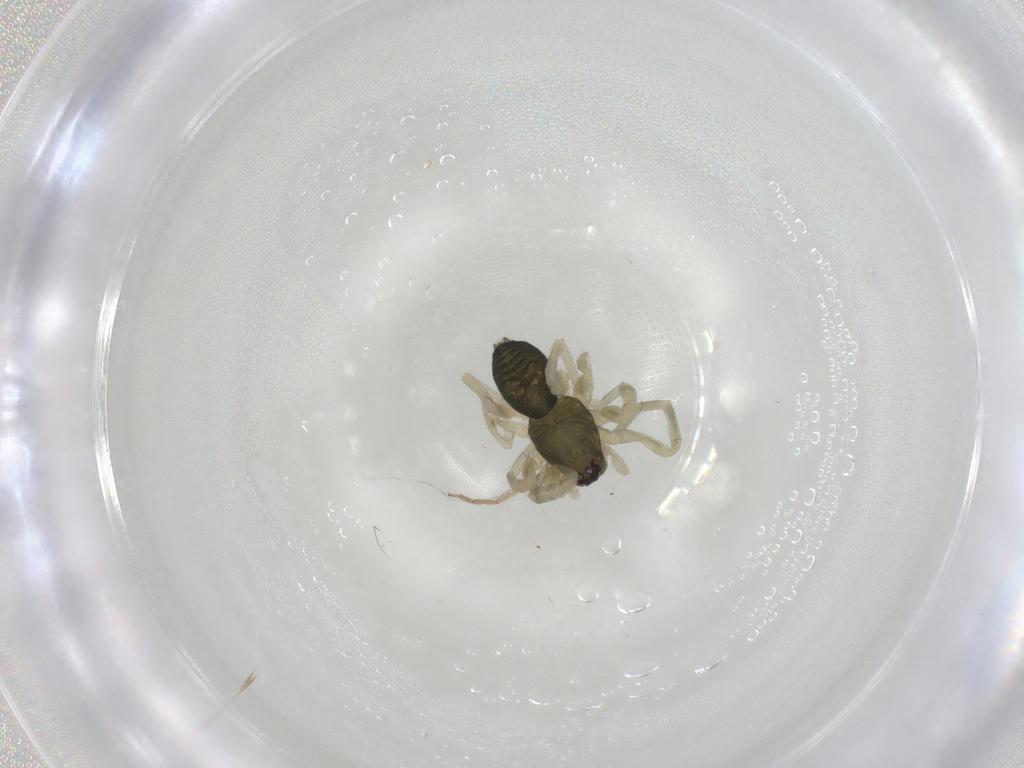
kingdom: Animalia
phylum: Arthropoda
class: Arachnida
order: Araneae
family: Trachelidae
